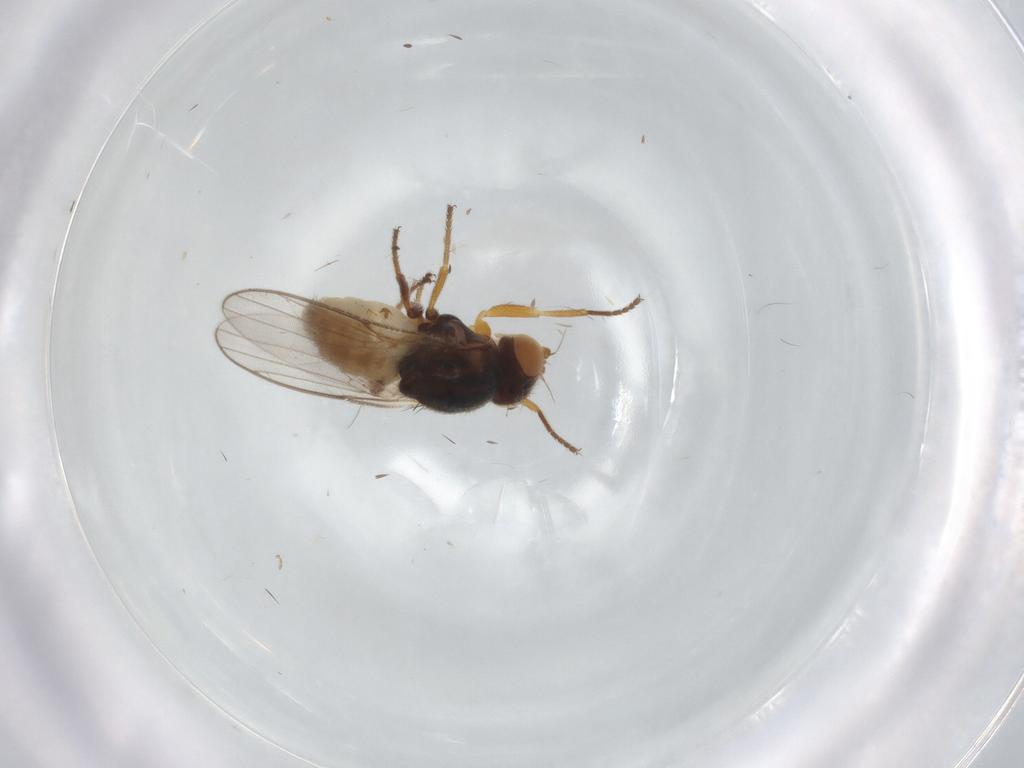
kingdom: Animalia
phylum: Arthropoda
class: Insecta
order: Diptera
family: Chloropidae
